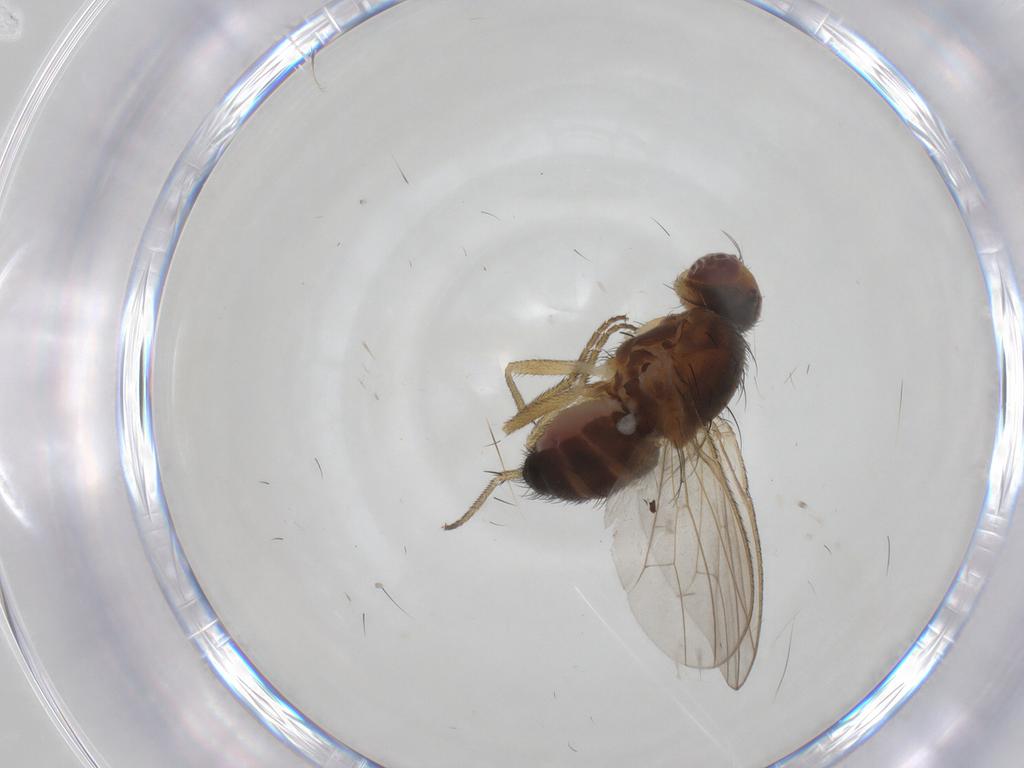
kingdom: Animalia
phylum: Arthropoda
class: Insecta
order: Diptera
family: Heleomyzidae
